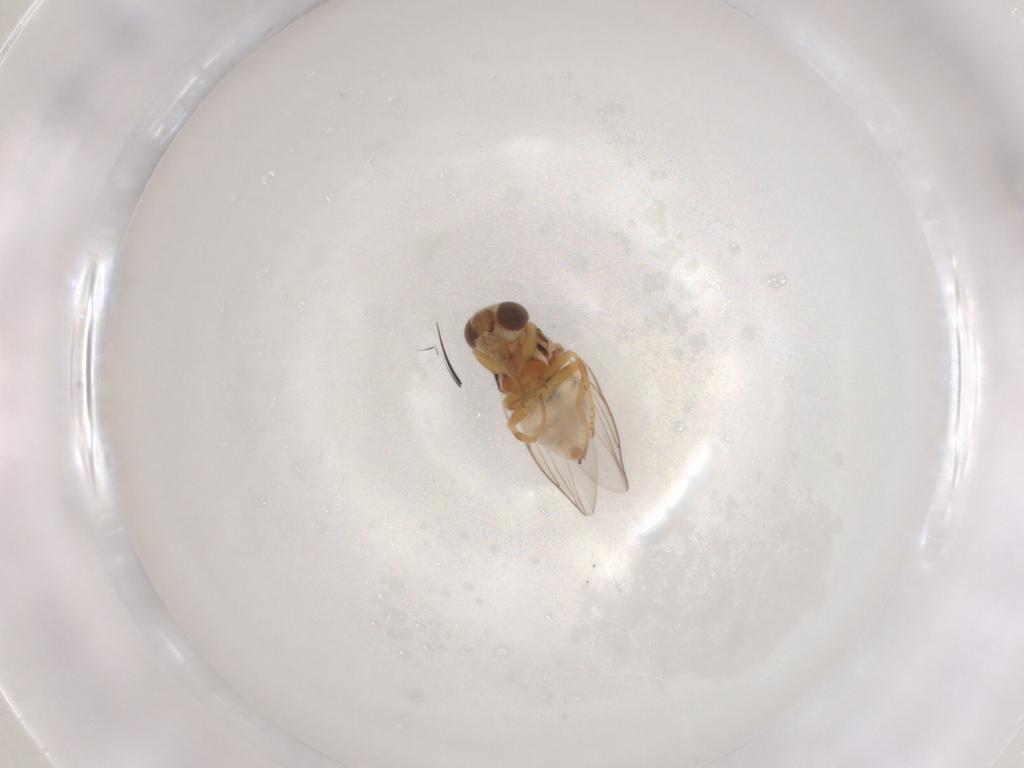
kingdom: Animalia
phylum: Arthropoda
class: Insecta
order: Diptera
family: Chloropidae
